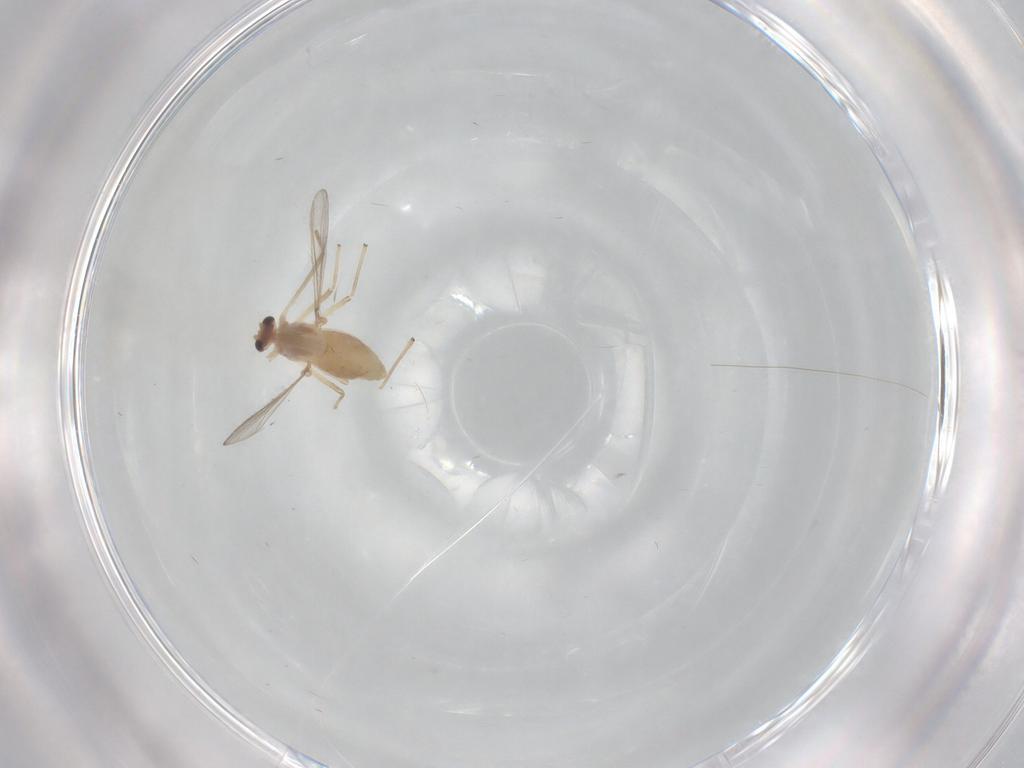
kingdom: Animalia
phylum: Arthropoda
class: Insecta
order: Diptera
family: Chironomidae
